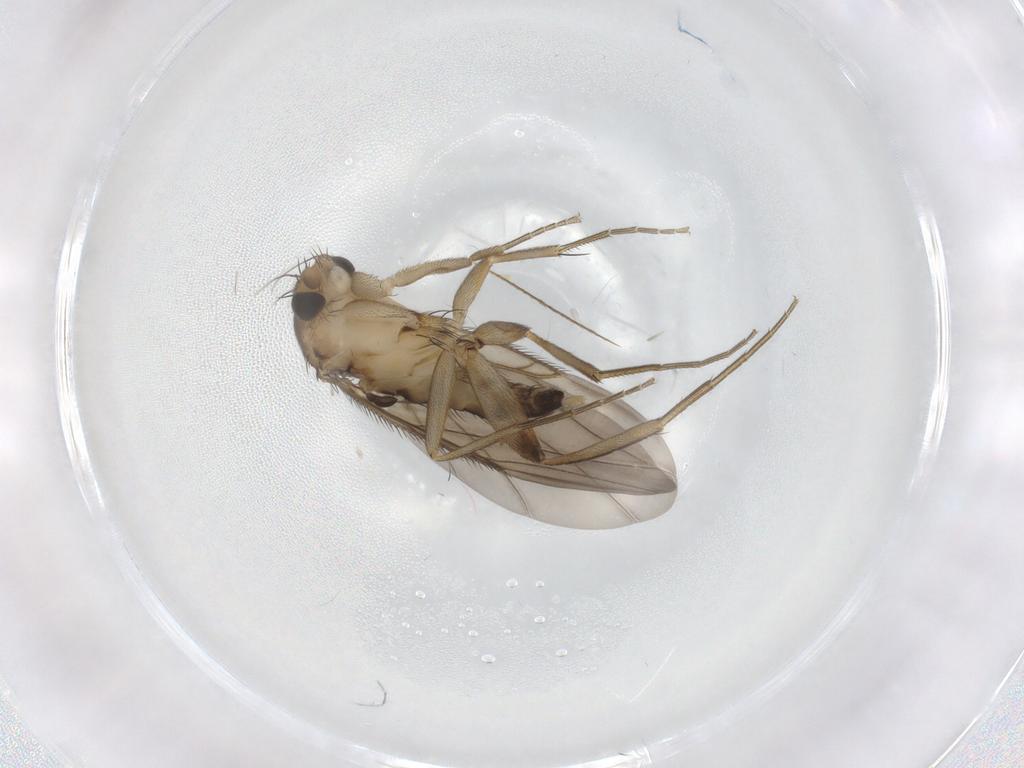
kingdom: Animalia
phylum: Arthropoda
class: Insecta
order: Diptera
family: Phoridae
